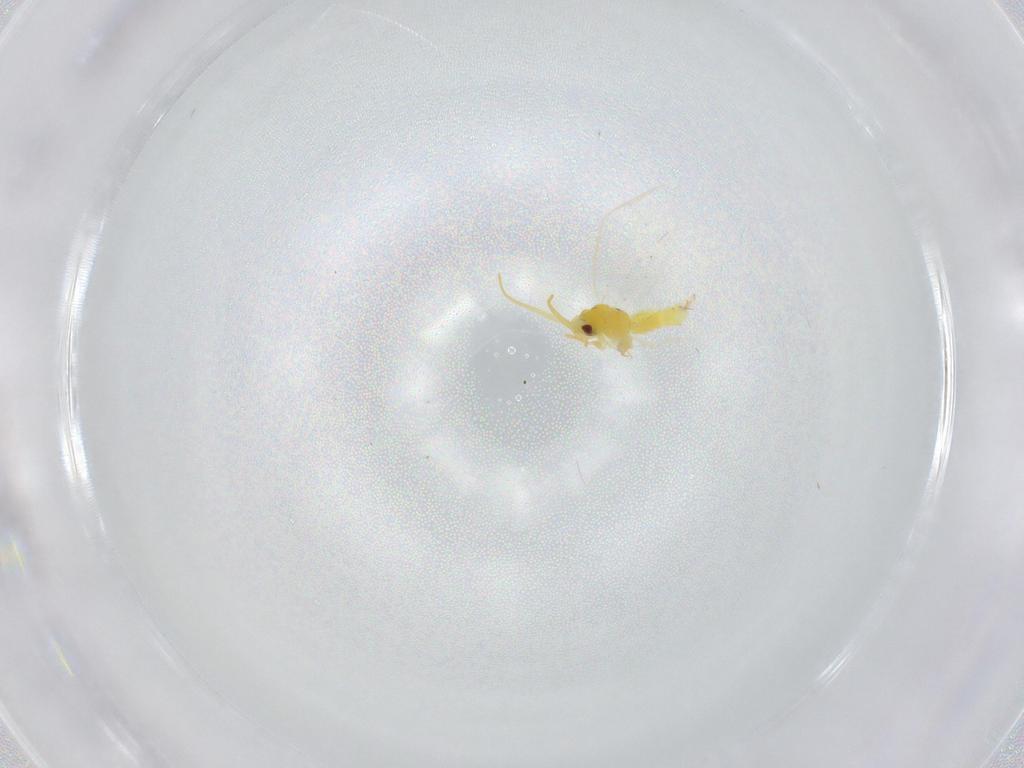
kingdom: Animalia
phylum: Arthropoda
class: Insecta
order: Hemiptera
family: Aleyrodidae
